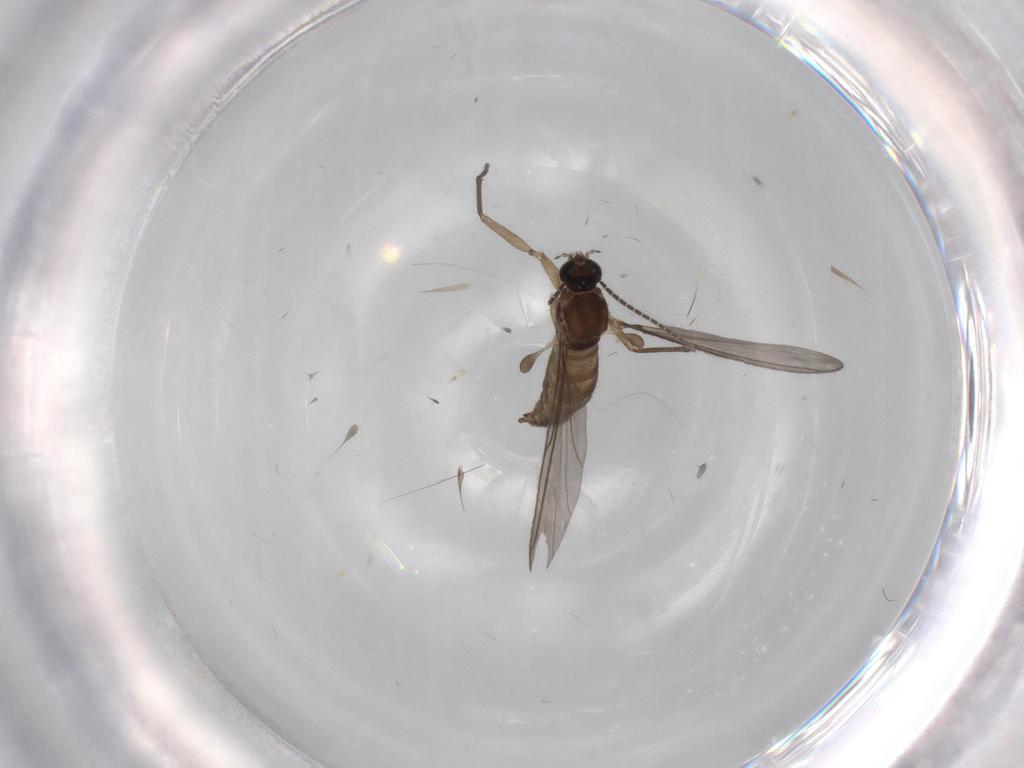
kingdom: Animalia
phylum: Arthropoda
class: Insecta
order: Diptera
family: Sciaridae
